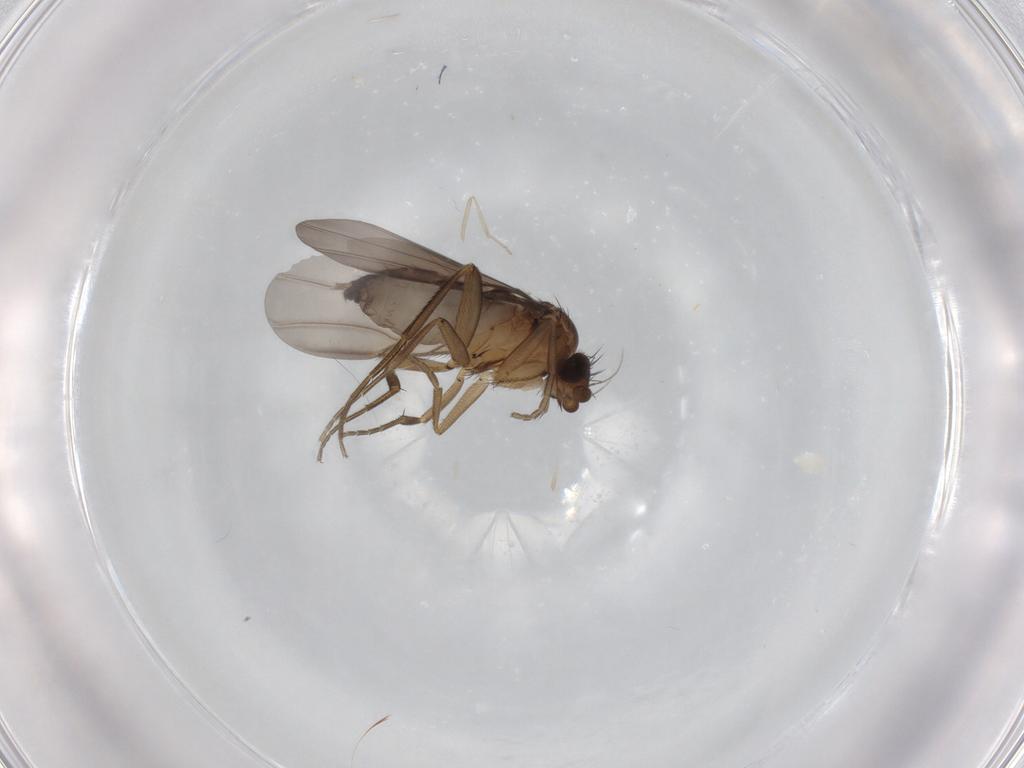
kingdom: Animalia
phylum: Arthropoda
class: Insecta
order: Diptera
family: Phoridae
